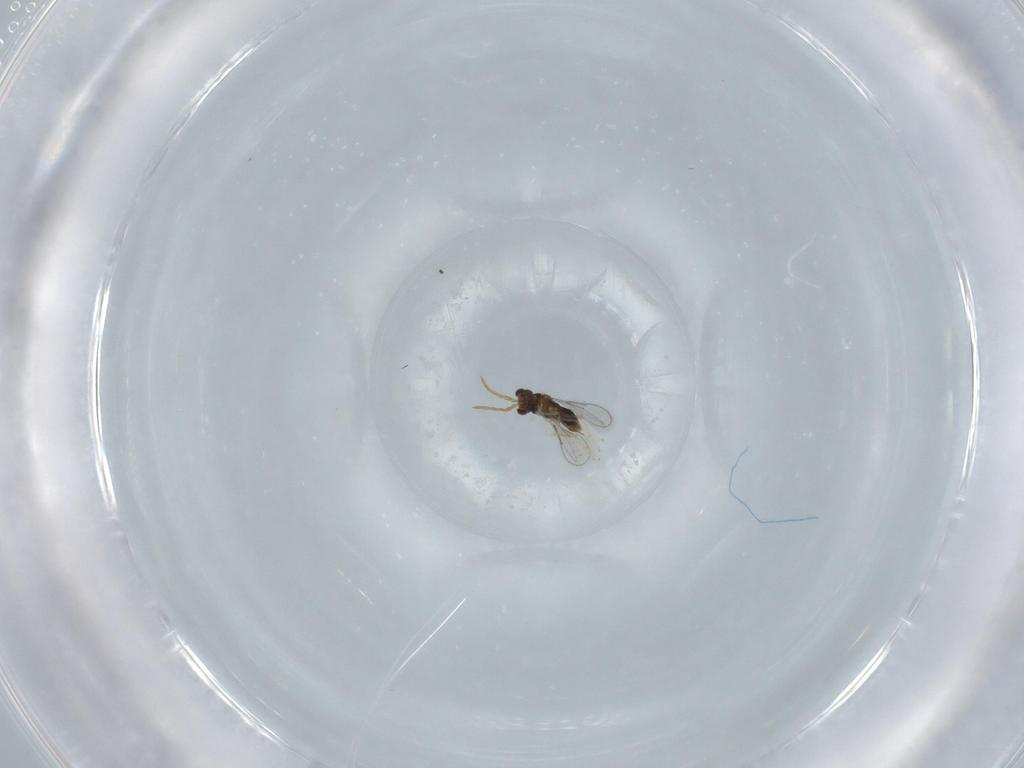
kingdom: Animalia
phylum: Arthropoda
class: Insecta
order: Hymenoptera
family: Aphelinidae
